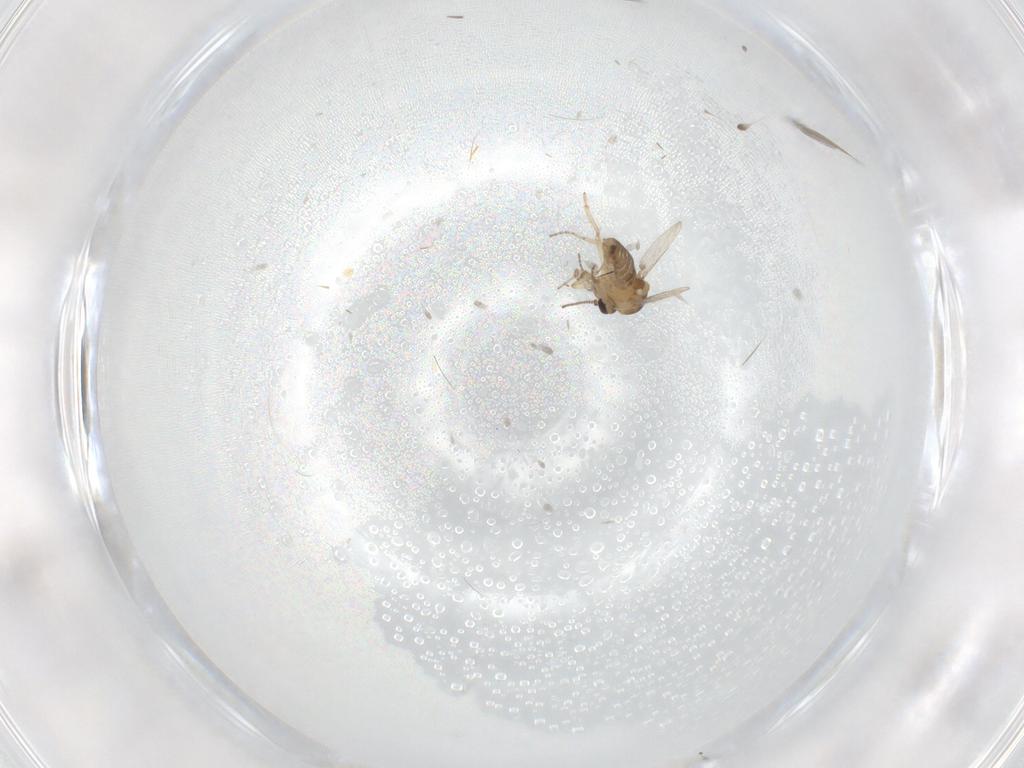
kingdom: Animalia
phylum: Arthropoda
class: Insecta
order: Diptera
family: Ceratopogonidae
